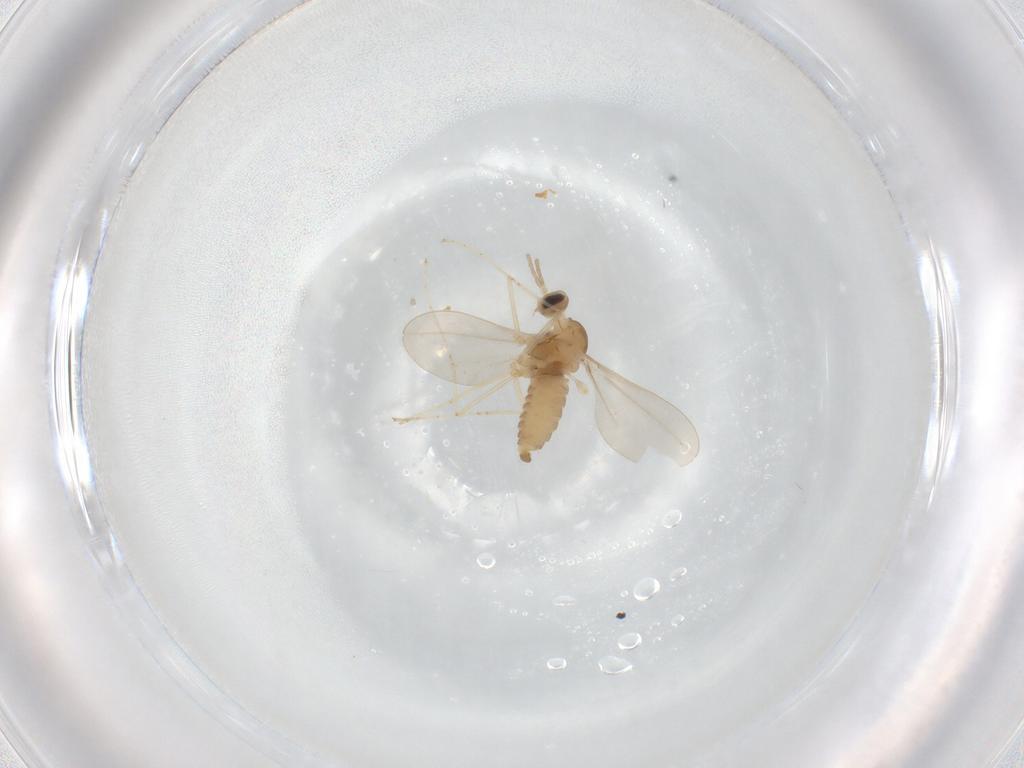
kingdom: Animalia
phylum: Arthropoda
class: Insecta
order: Diptera
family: Cecidomyiidae
